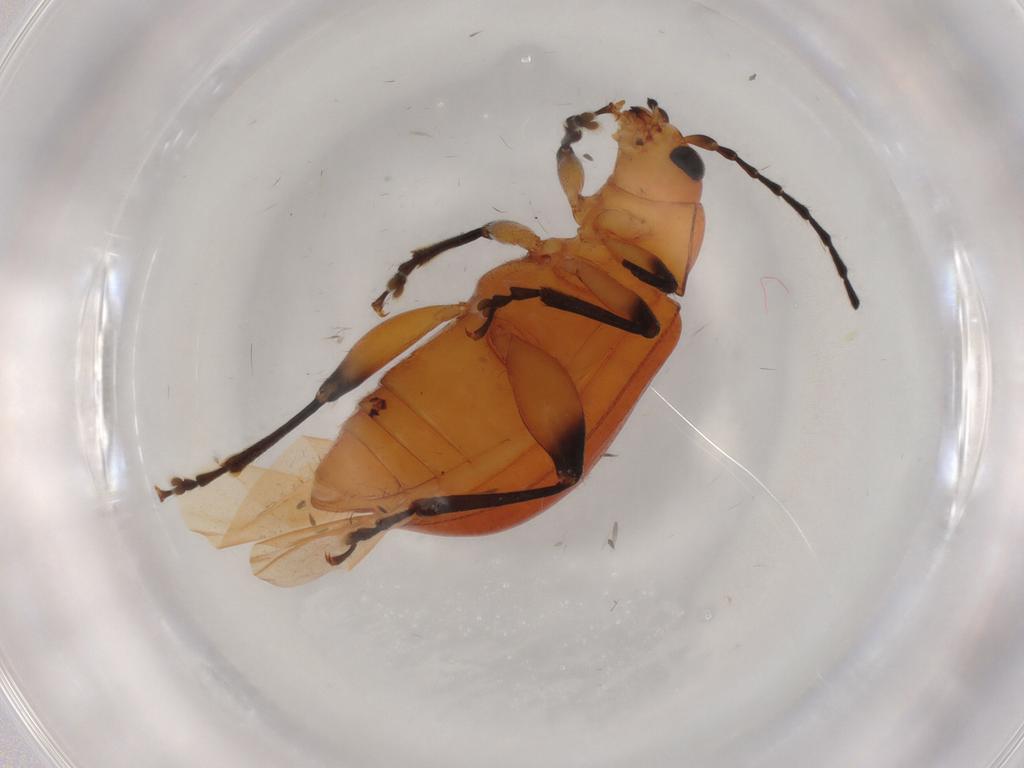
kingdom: Animalia
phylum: Arthropoda
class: Insecta
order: Coleoptera
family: Chrysomelidae
